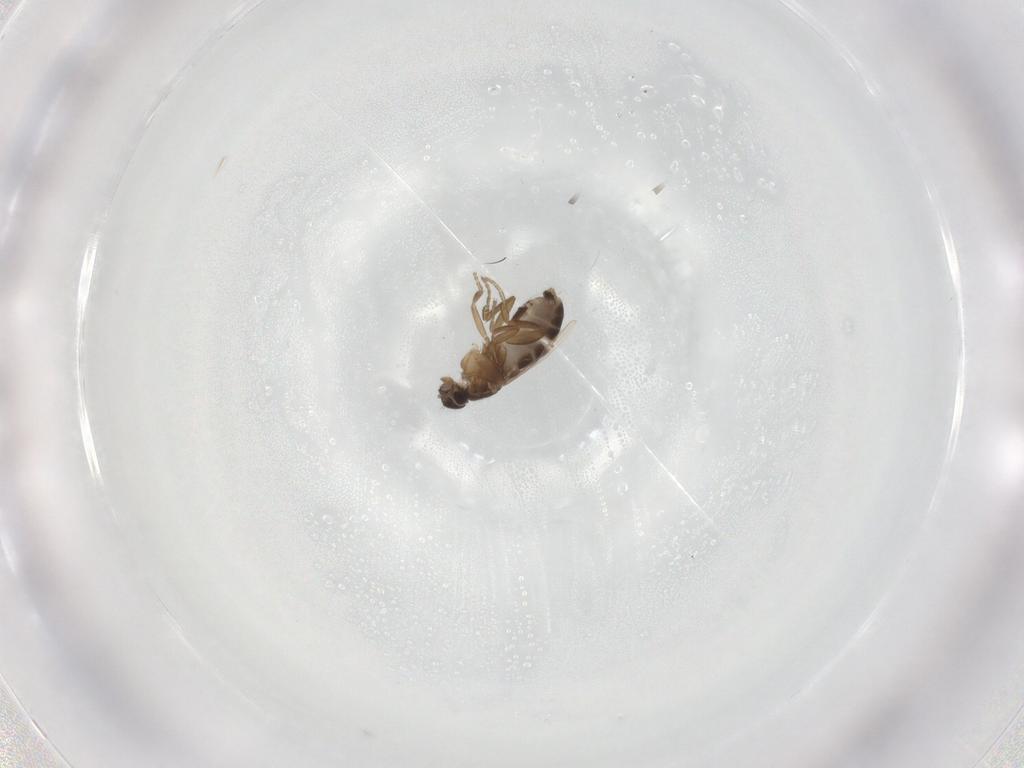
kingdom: Animalia
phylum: Arthropoda
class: Insecta
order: Diptera
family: Phoridae
